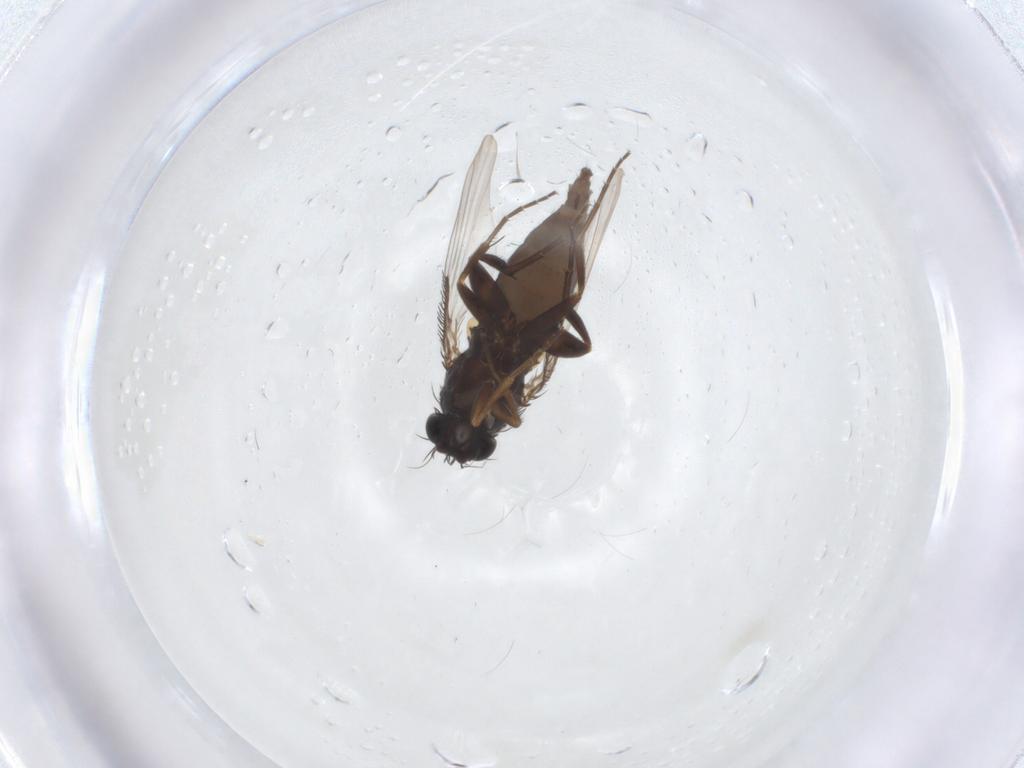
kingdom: Animalia
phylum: Arthropoda
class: Insecta
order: Diptera
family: Phoridae
